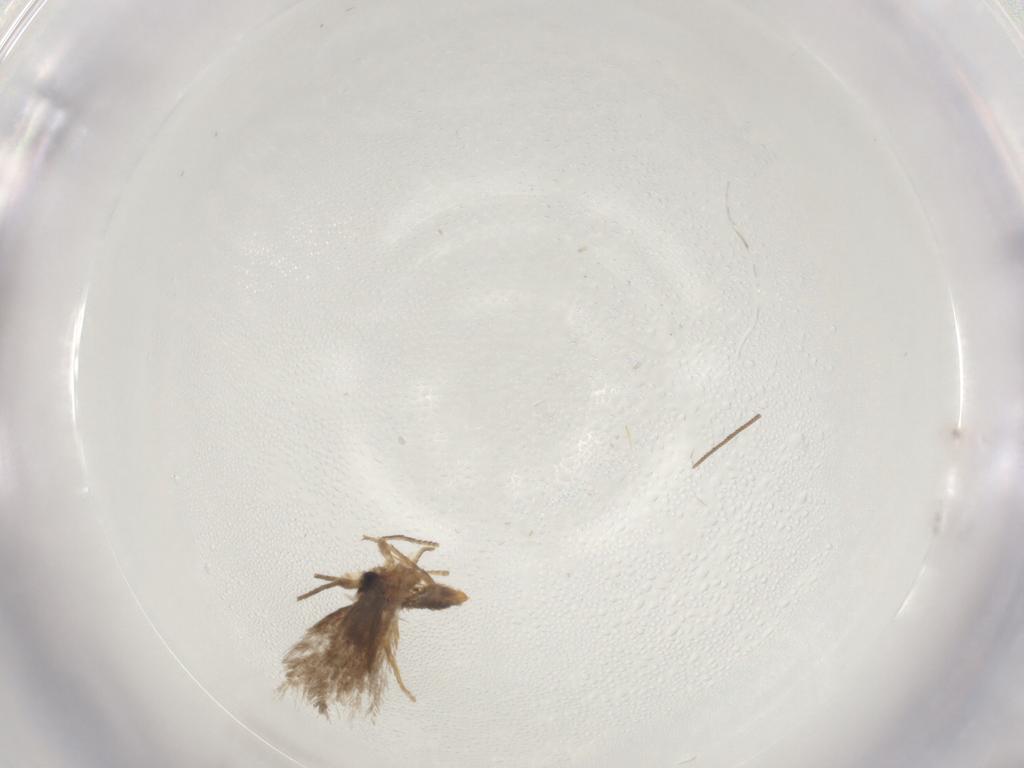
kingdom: Animalia
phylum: Arthropoda
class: Insecta
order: Lepidoptera
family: Nepticulidae
